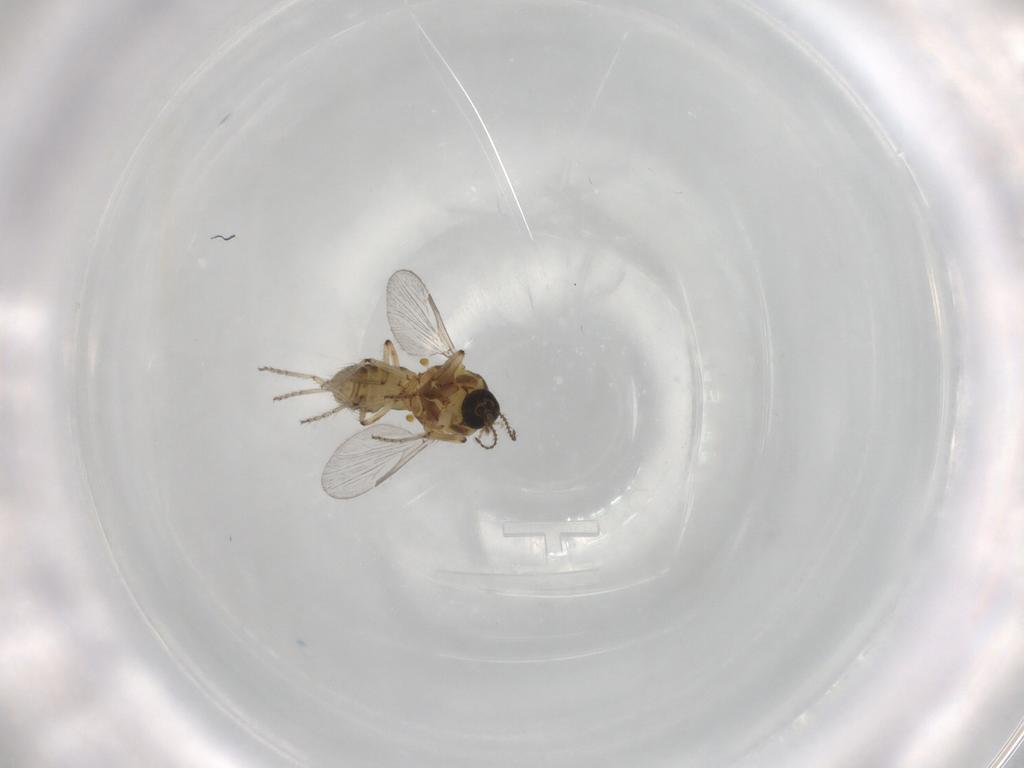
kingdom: Animalia
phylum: Arthropoda
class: Insecta
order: Diptera
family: Ceratopogonidae
